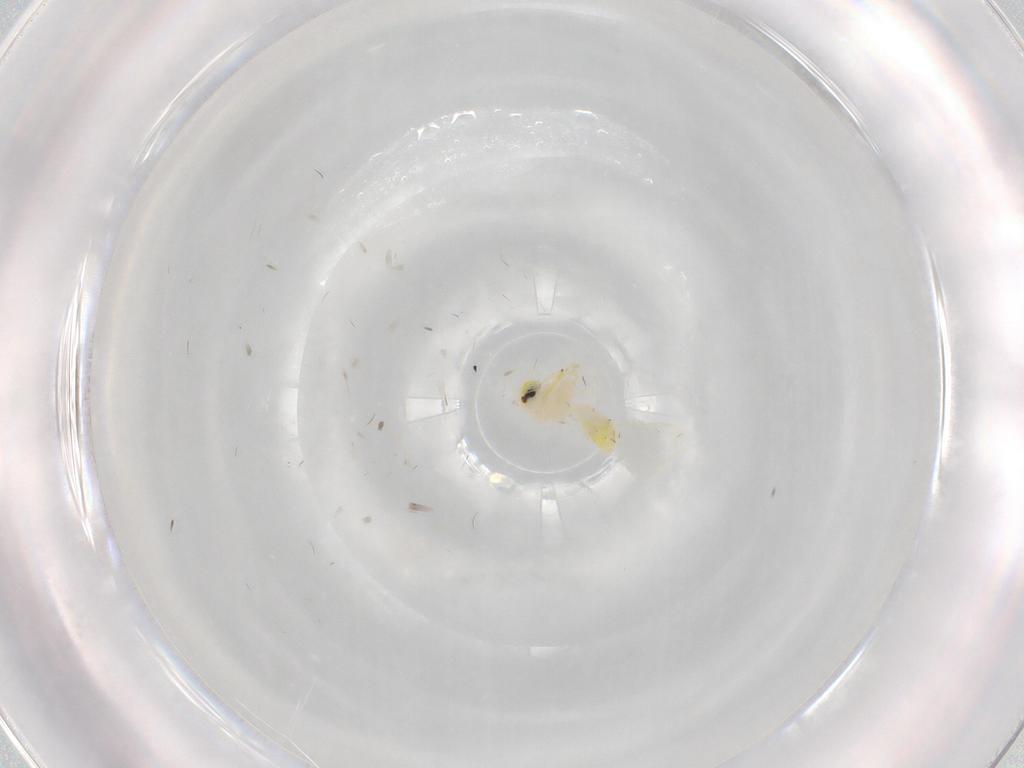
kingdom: Animalia
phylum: Arthropoda
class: Insecta
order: Hemiptera
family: Aleyrodidae
